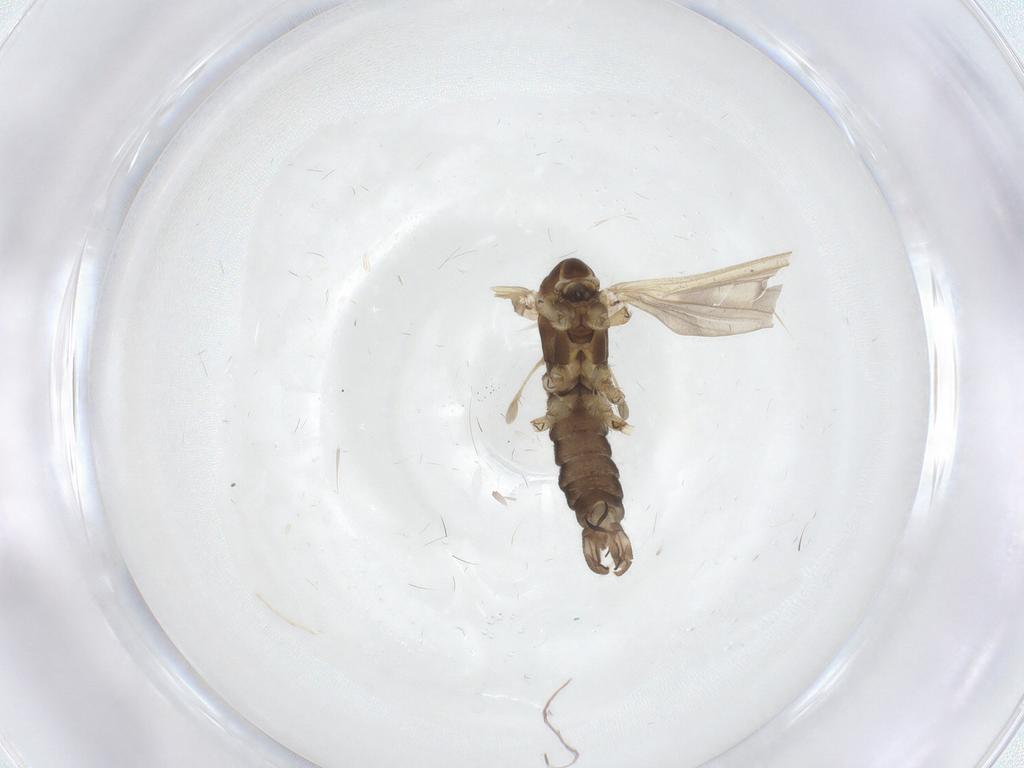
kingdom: Animalia
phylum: Arthropoda
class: Insecta
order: Diptera
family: Limoniidae
